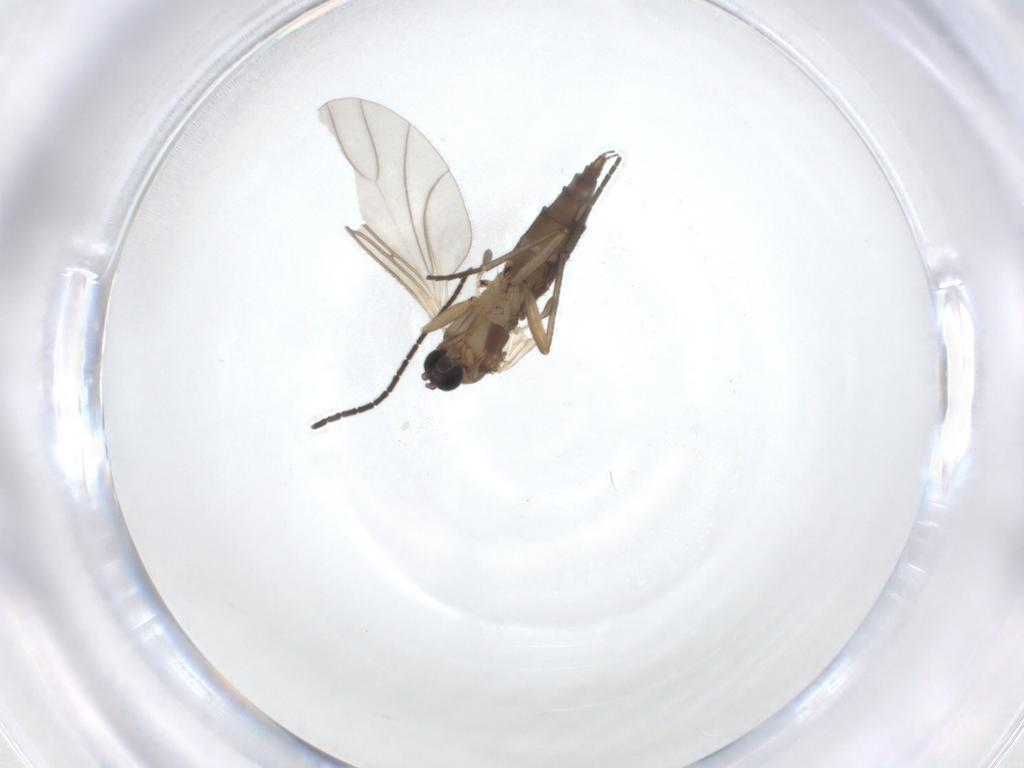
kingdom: Animalia
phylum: Arthropoda
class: Insecta
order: Diptera
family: Sciaridae
